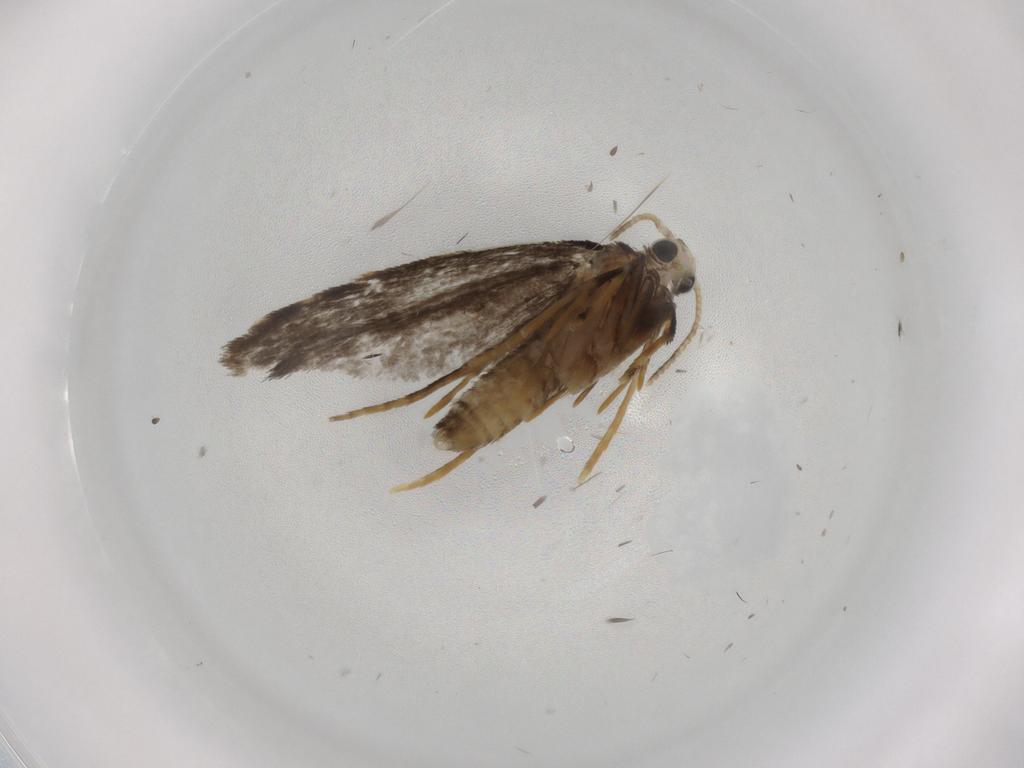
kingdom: Animalia
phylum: Arthropoda
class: Insecta
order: Lepidoptera
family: Psychidae
